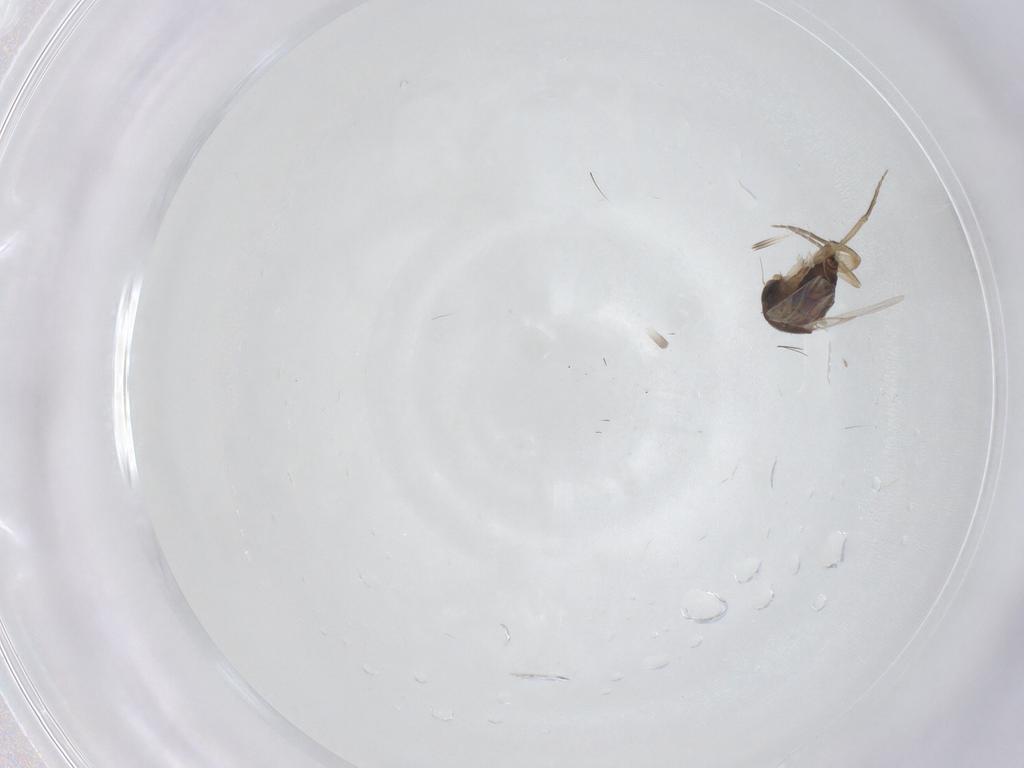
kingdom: Animalia
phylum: Arthropoda
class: Insecta
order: Diptera
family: Phoridae
